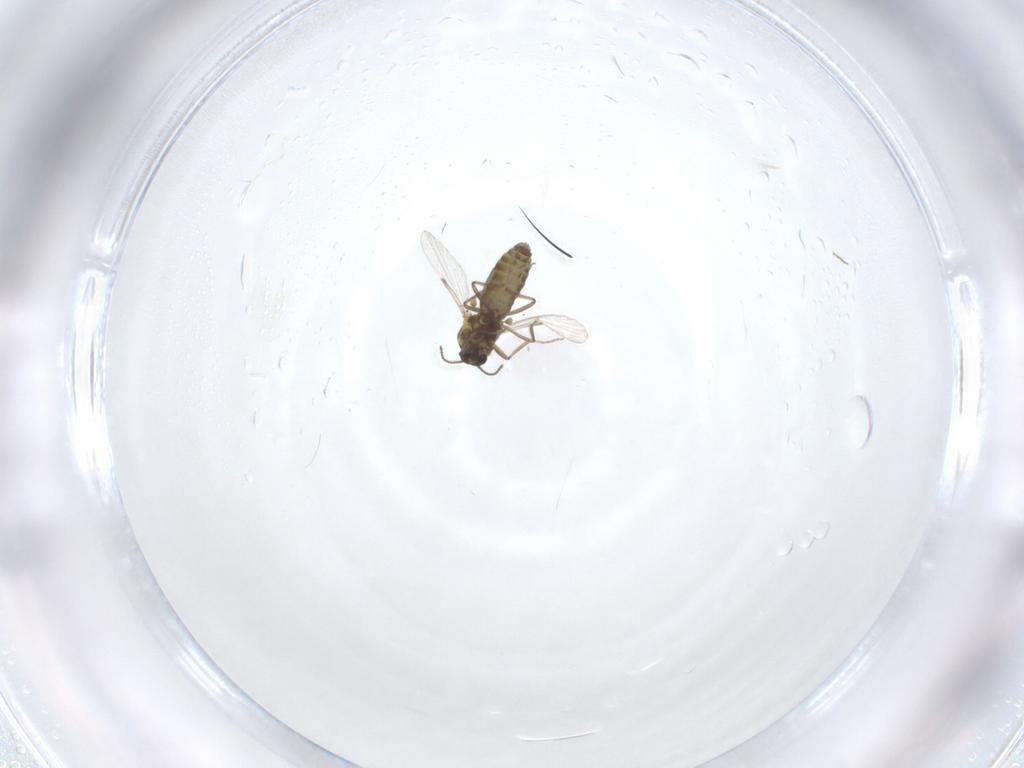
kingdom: Animalia
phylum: Arthropoda
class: Insecta
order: Diptera
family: Ceratopogonidae
